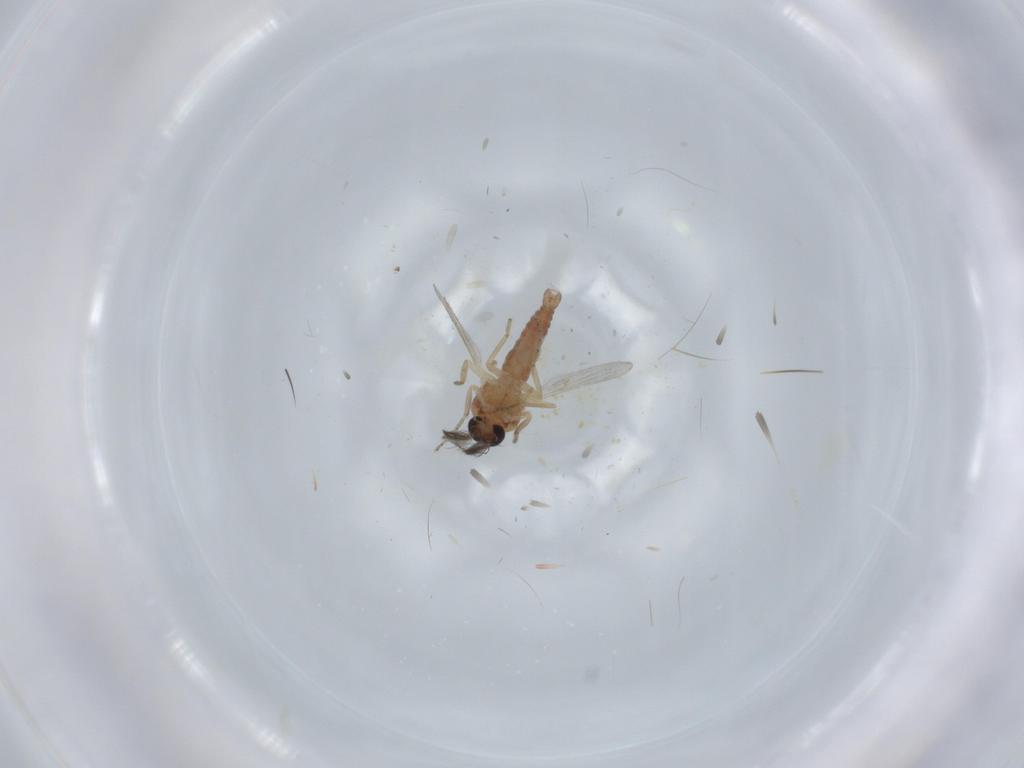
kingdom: Animalia
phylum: Arthropoda
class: Insecta
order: Diptera
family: Ceratopogonidae
